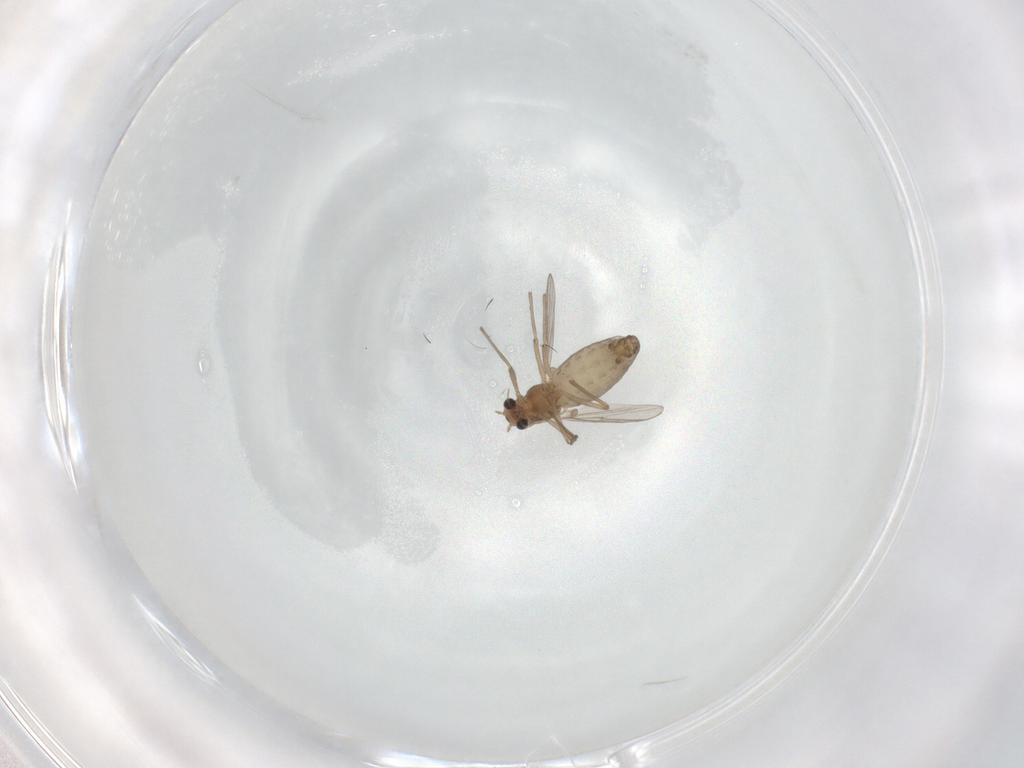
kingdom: Animalia
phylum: Arthropoda
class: Insecta
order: Diptera
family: Chironomidae
